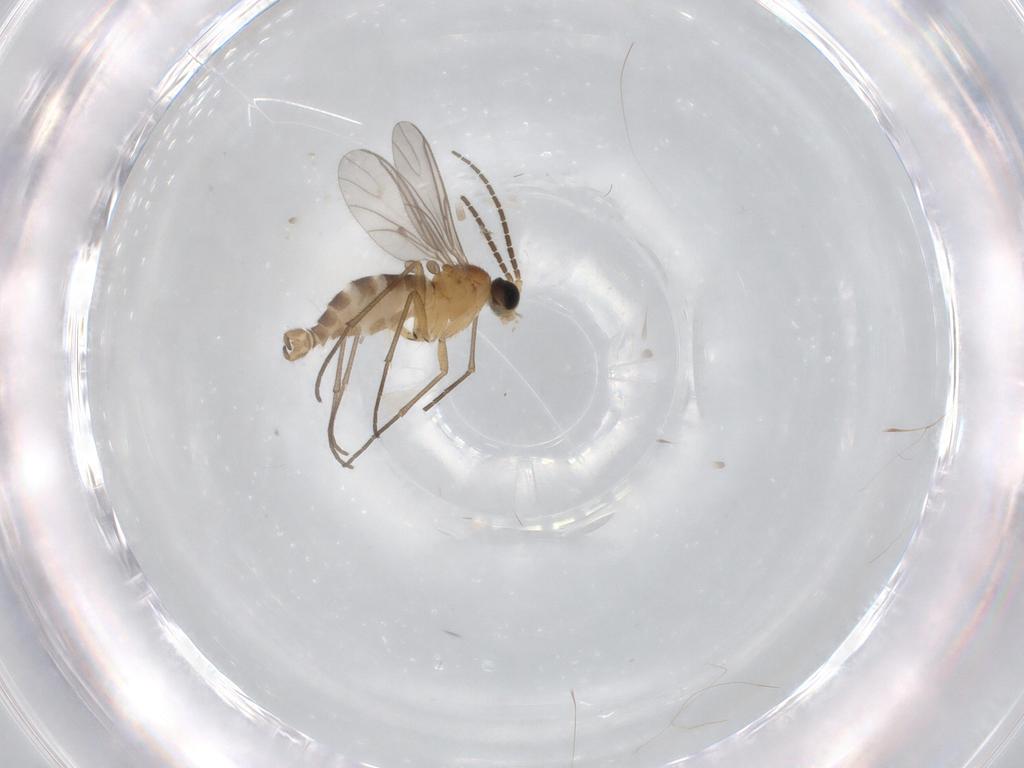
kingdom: Animalia
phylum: Arthropoda
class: Insecta
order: Diptera
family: Sciaridae
